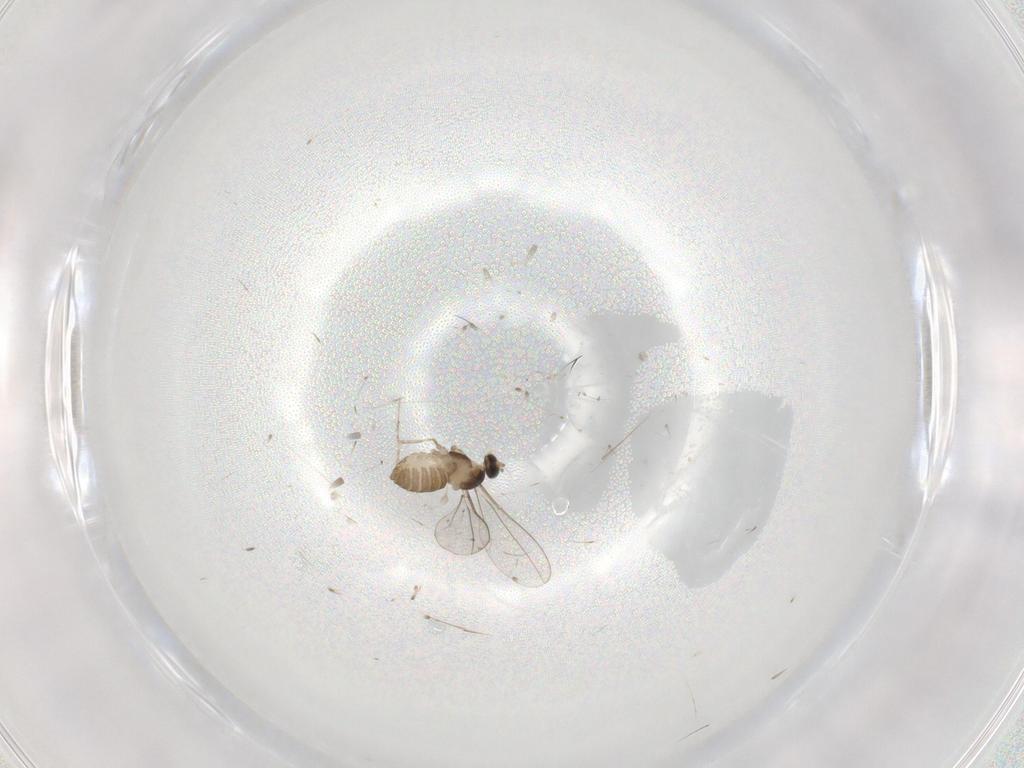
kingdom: Animalia
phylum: Arthropoda
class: Insecta
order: Diptera
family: Cecidomyiidae
